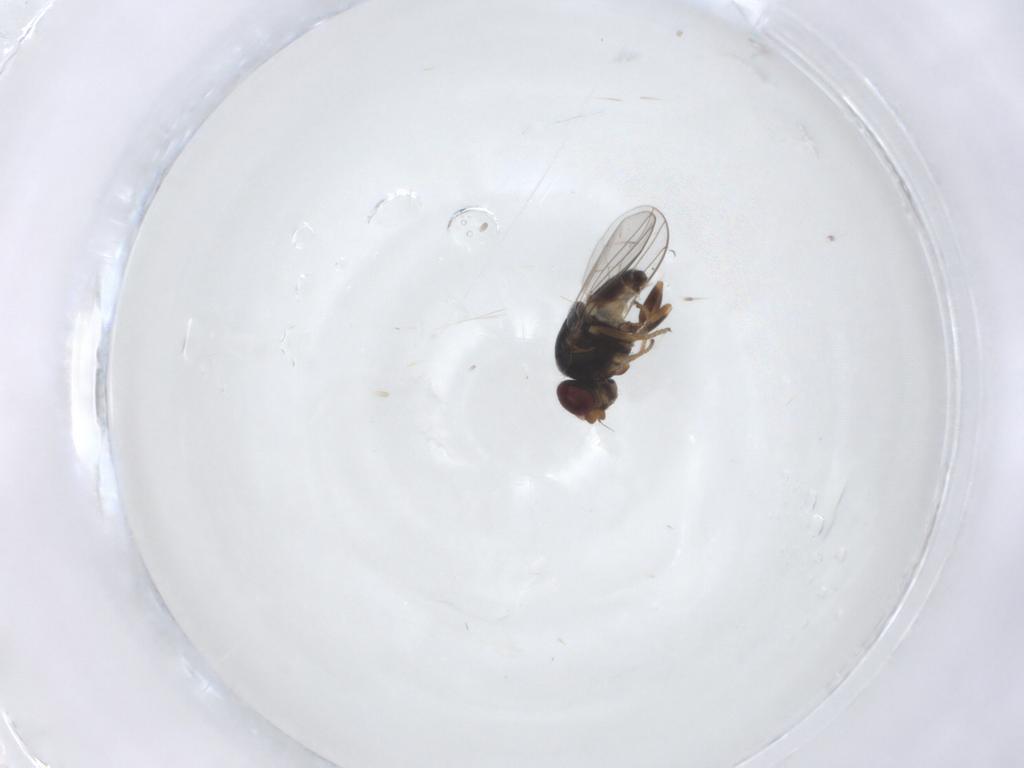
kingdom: Animalia
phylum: Arthropoda
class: Insecta
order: Diptera
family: Chloropidae
